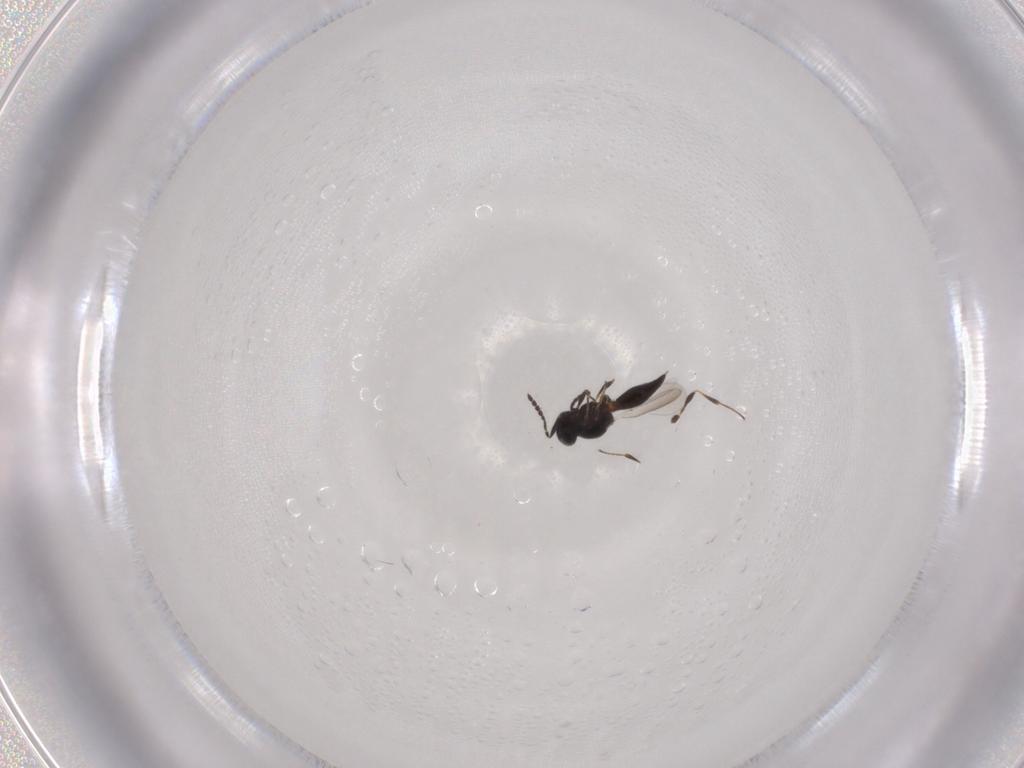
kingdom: Animalia
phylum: Arthropoda
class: Insecta
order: Hymenoptera
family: Platygastridae
